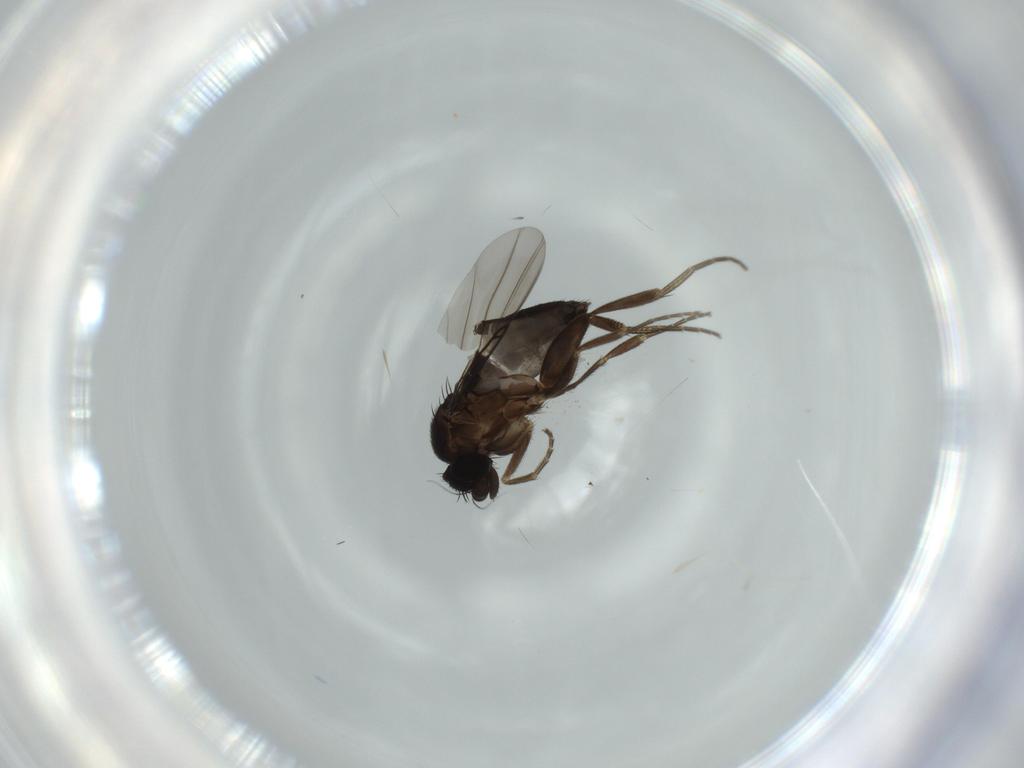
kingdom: Animalia
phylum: Arthropoda
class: Insecta
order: Diptera
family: Phoridae
